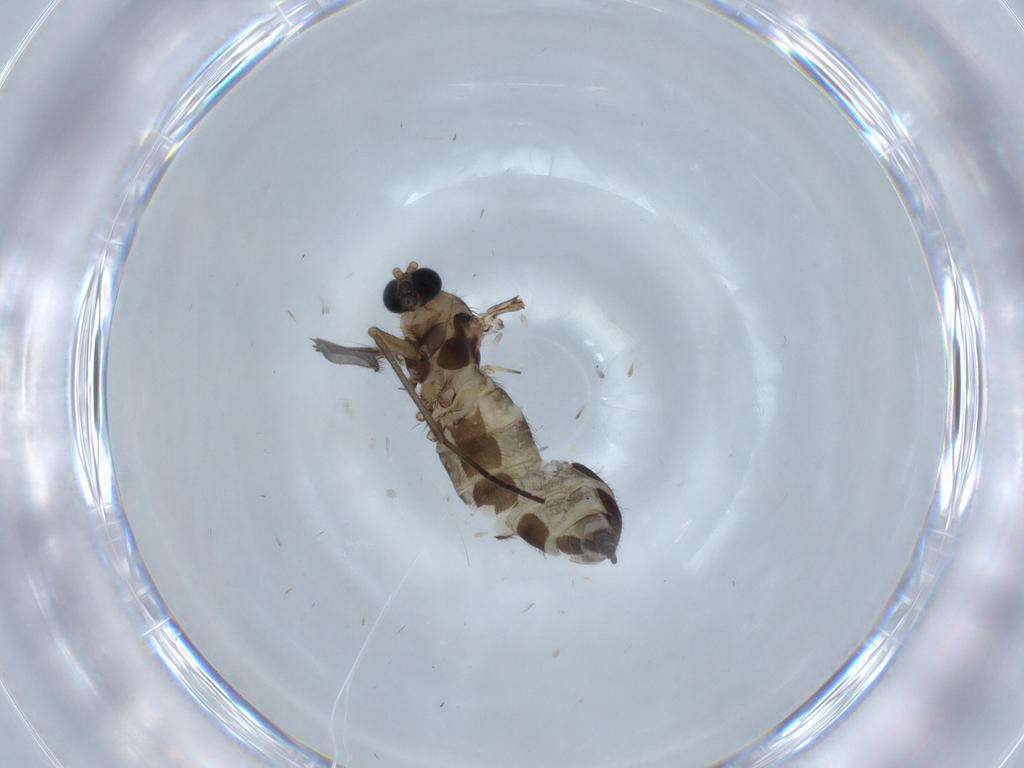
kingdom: Animalia
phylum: Arthropoda
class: Insecta
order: Diptera
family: Sciaridae
